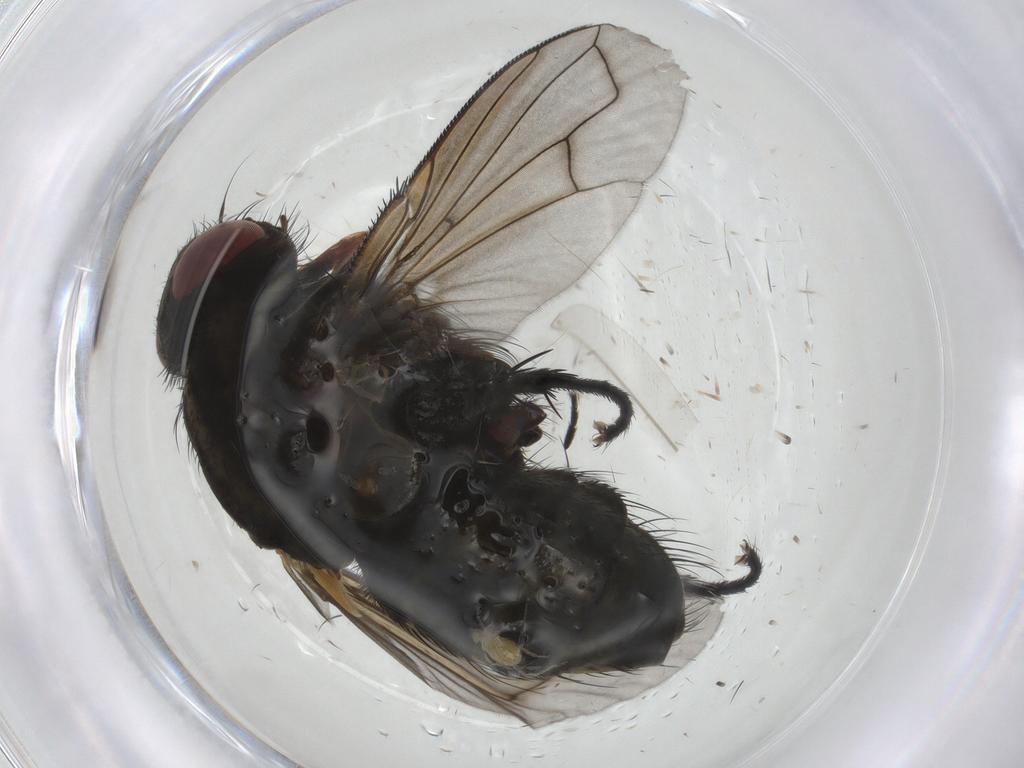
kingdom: Animalia
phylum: Arthropoda
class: Insecta
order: Diptera
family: Tachinidae
